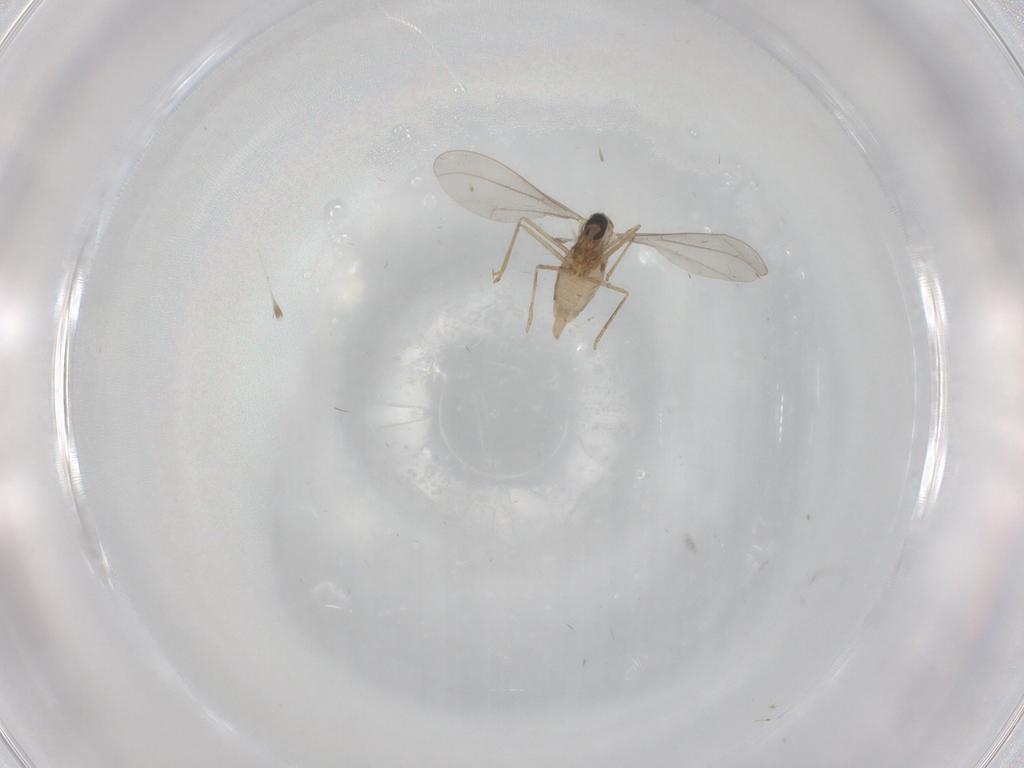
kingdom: Animalia
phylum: Arthropoda
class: Insecta
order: Diptera
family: Cecidomyiidae
